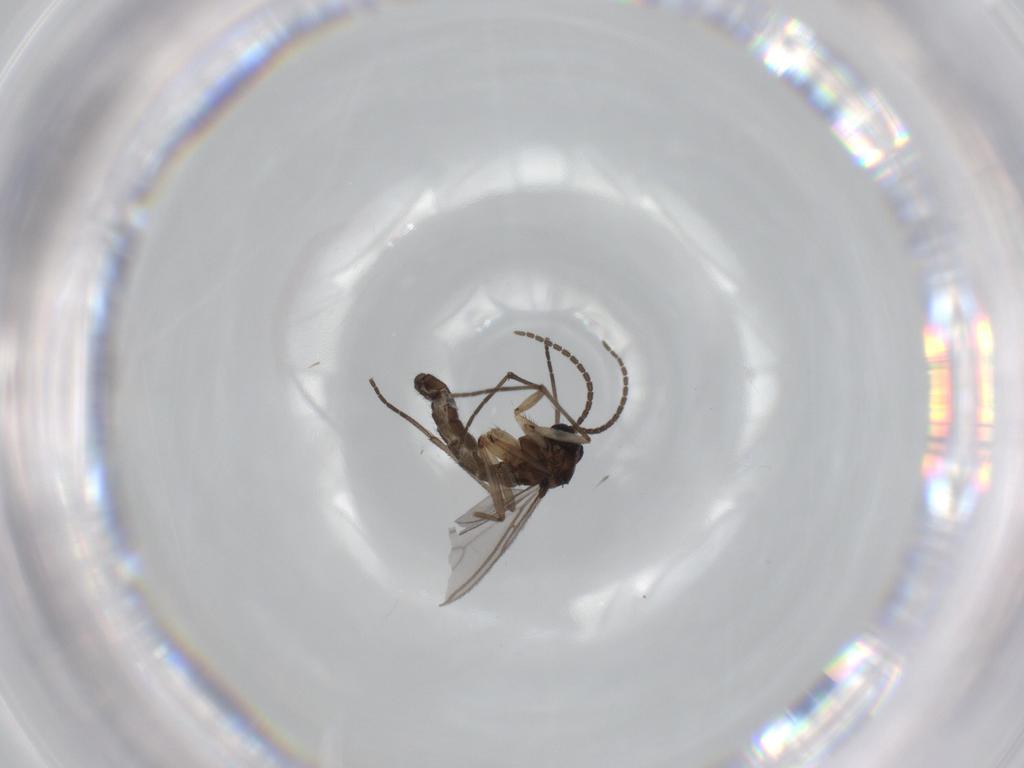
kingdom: Animalia
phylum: Arthropoda
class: Insecta
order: Diptera
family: Sciaridae
